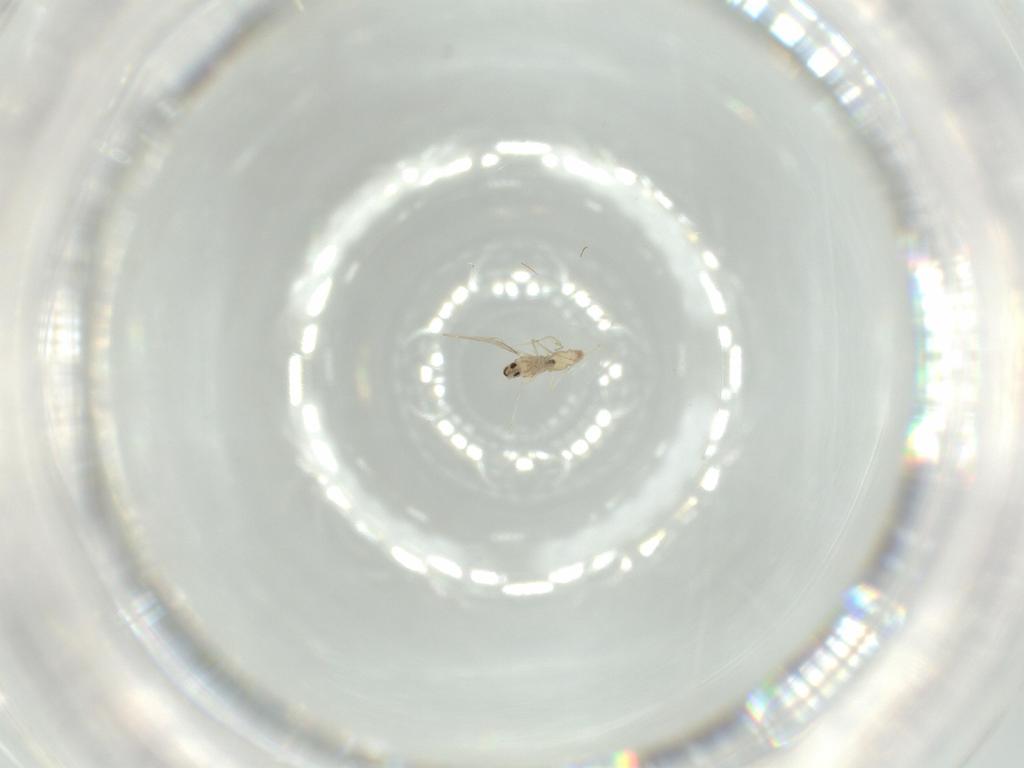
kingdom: Animalia
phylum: Arthropoda
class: Insecta
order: Diptera
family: Cecidomyiidae
